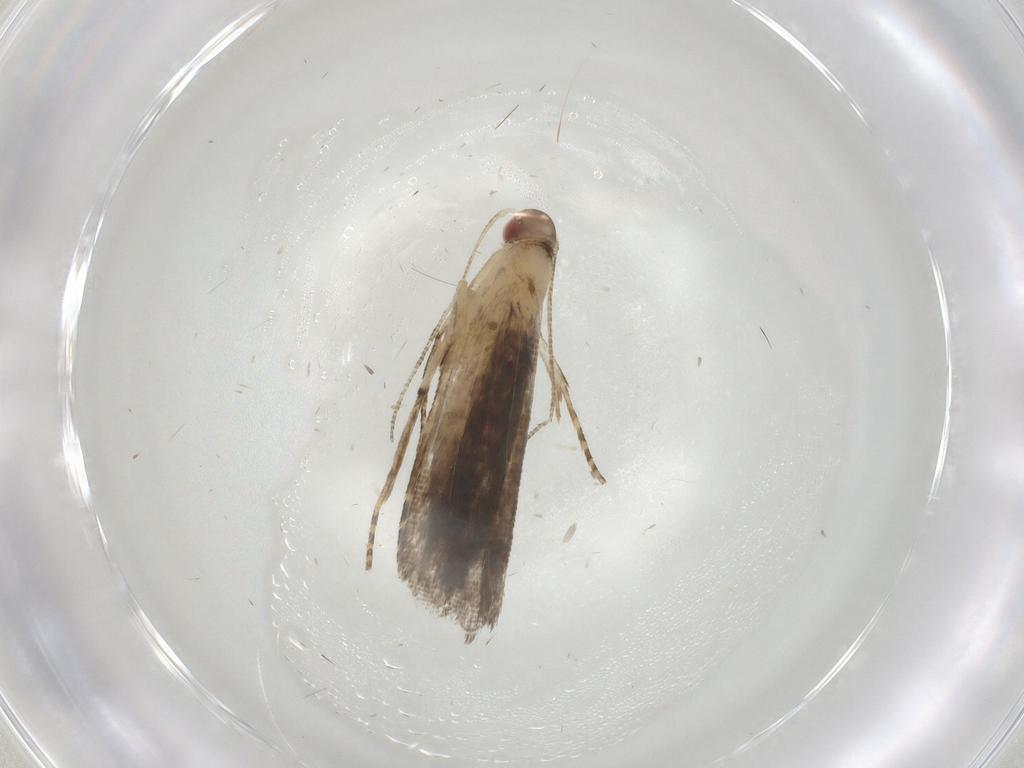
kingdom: Animalia
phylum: Arthropoda
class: Insecta
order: Lepidoptera
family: Gelechiidae
